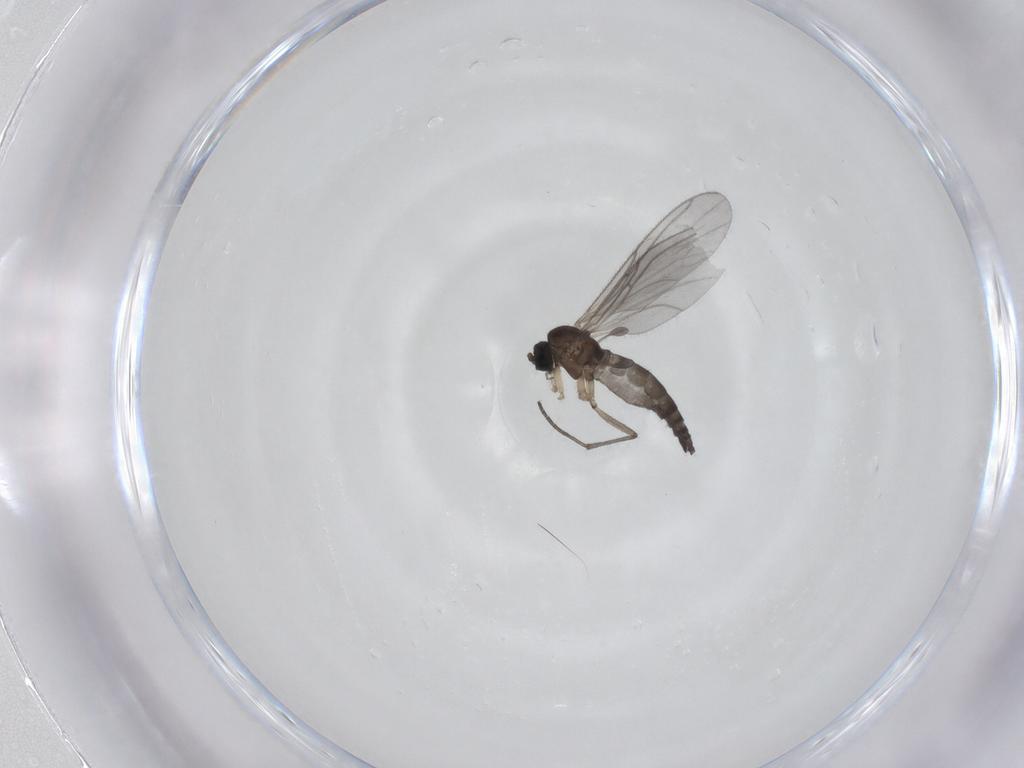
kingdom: Animalia
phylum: Arthropoda
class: Insecta
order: Diptera
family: Sciaridae
